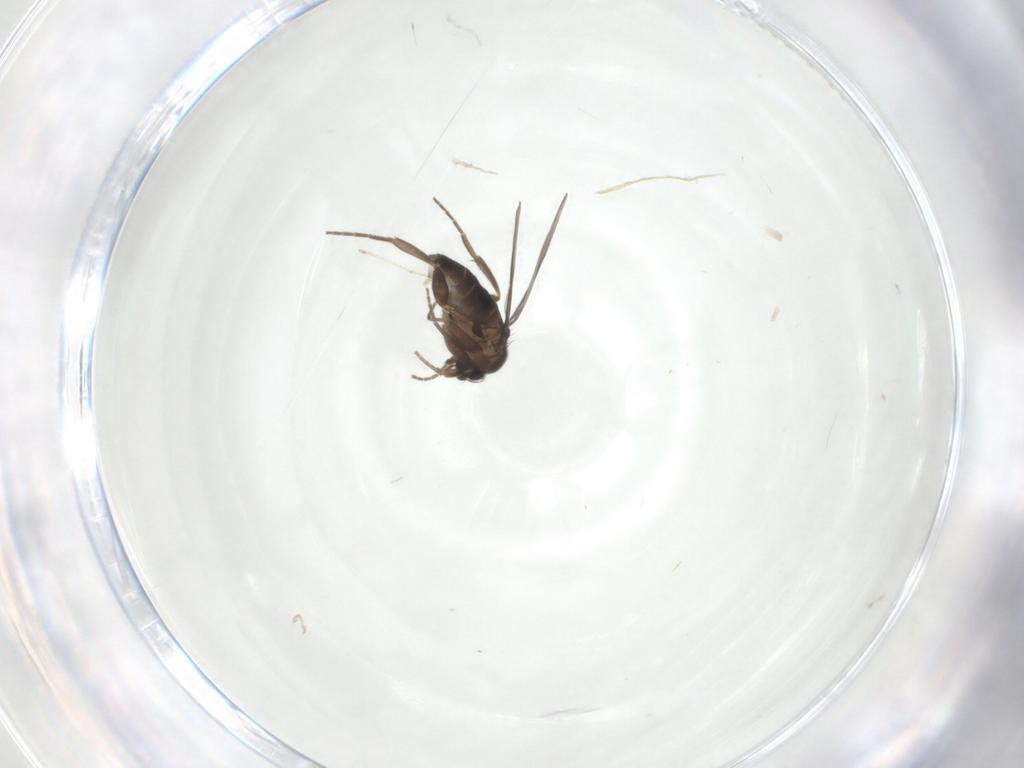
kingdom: Animalia
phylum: Arthropoda
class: Insecta
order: Diptera
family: Phoridae
